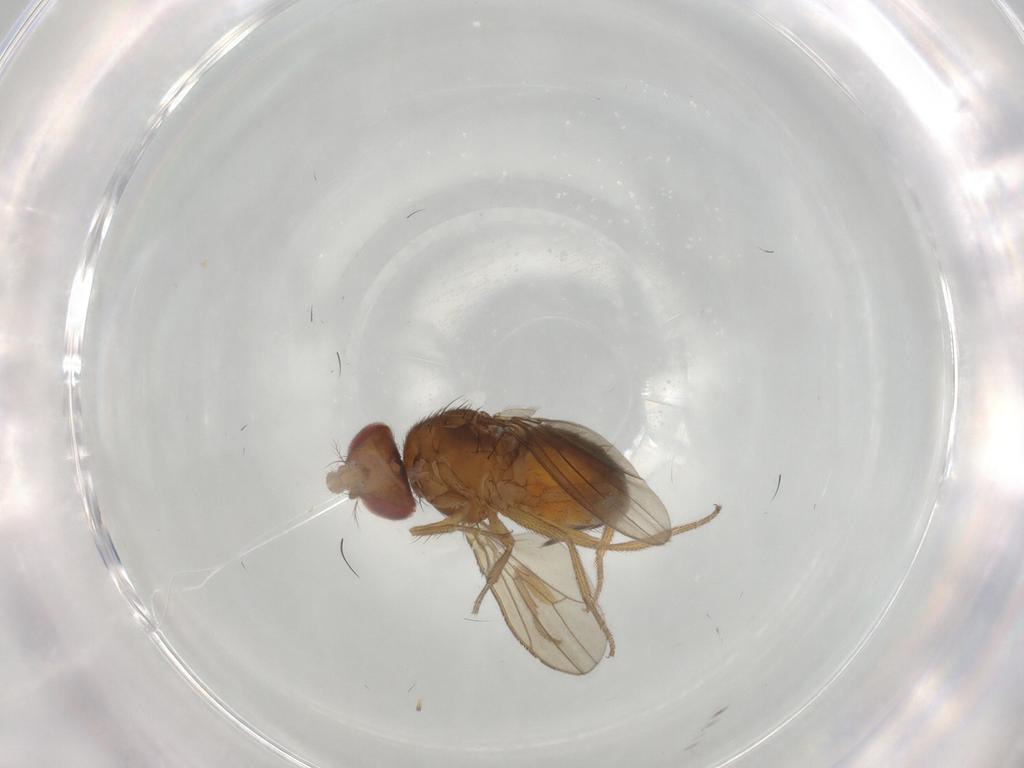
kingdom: Animalia
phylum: Arthropoda
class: Insecta
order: Diptera
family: Drosophilidae
